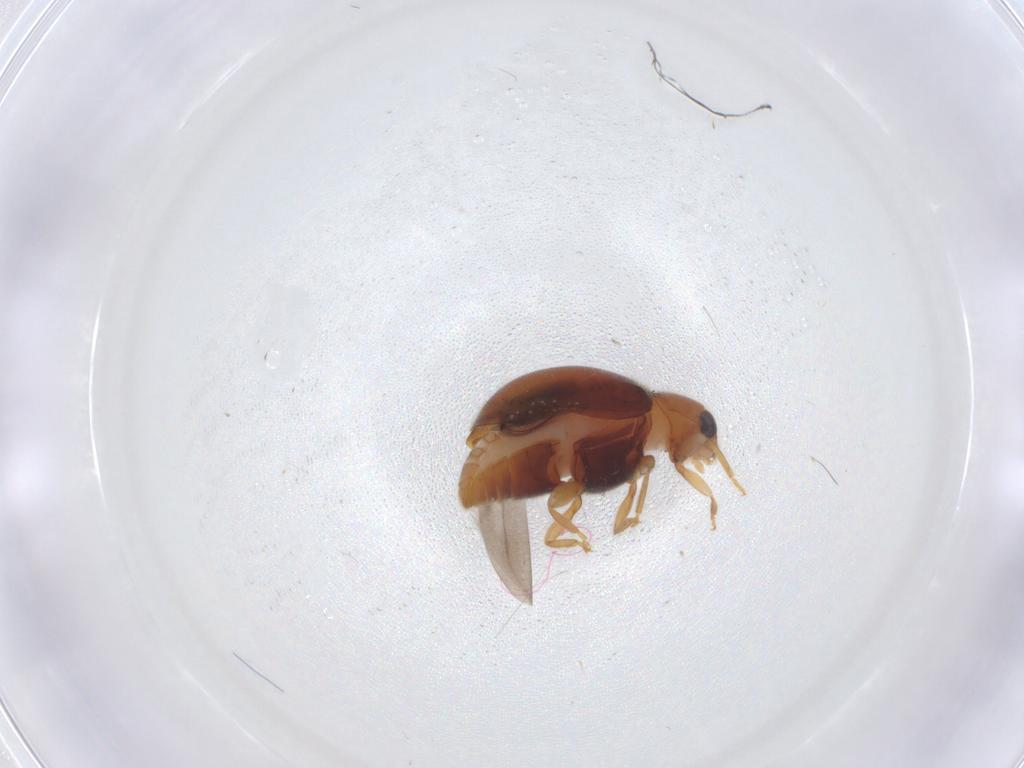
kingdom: Animalia
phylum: Arthropoda
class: Insecta
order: Coleoptera
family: Coccinellidae
